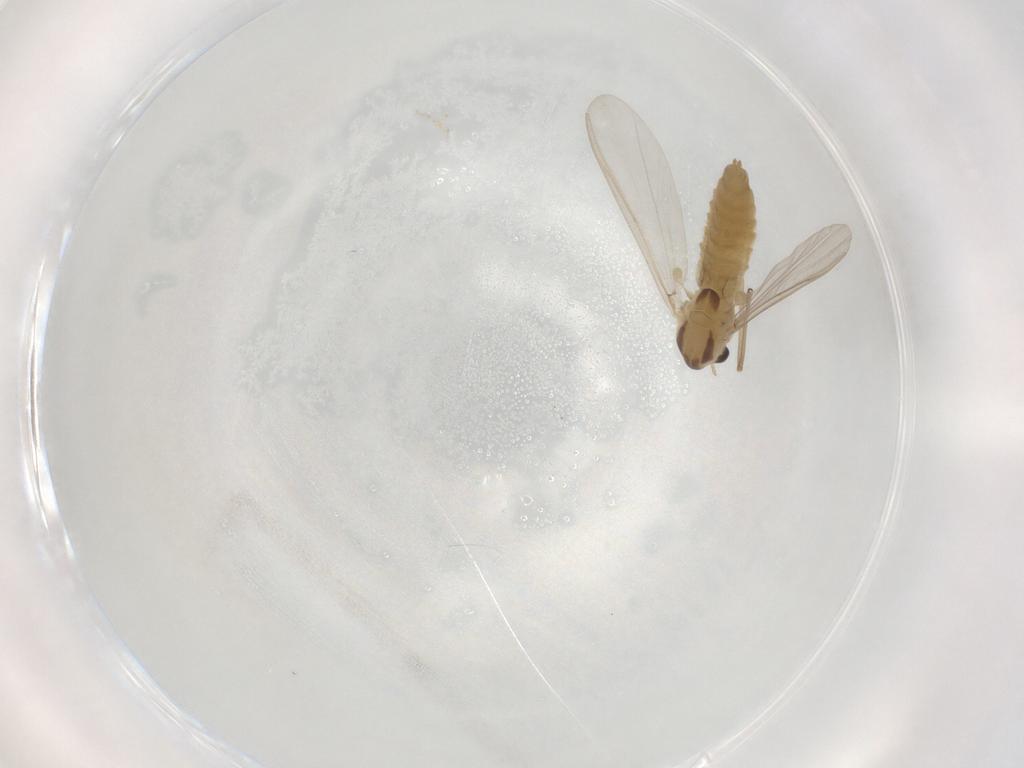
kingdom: Animalia
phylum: Arthropoda
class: Insecta
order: Diptera
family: Chironomidae
